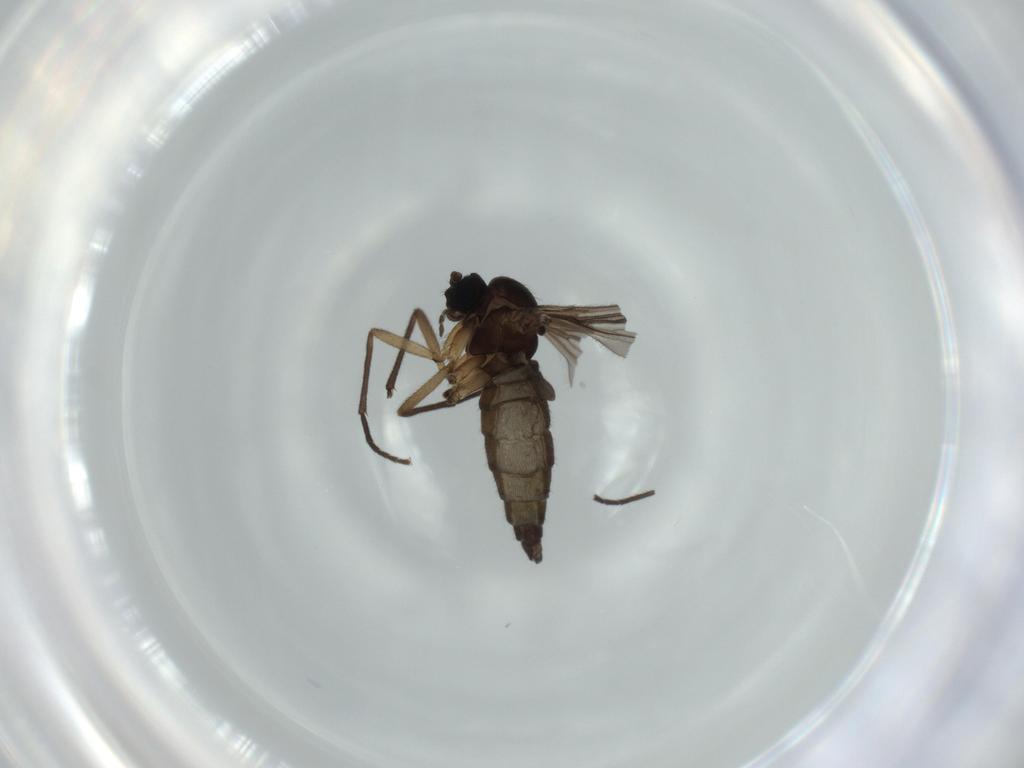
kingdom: Animalia
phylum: Arthropoda
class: Insecta
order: Diptera
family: Sciaridae
